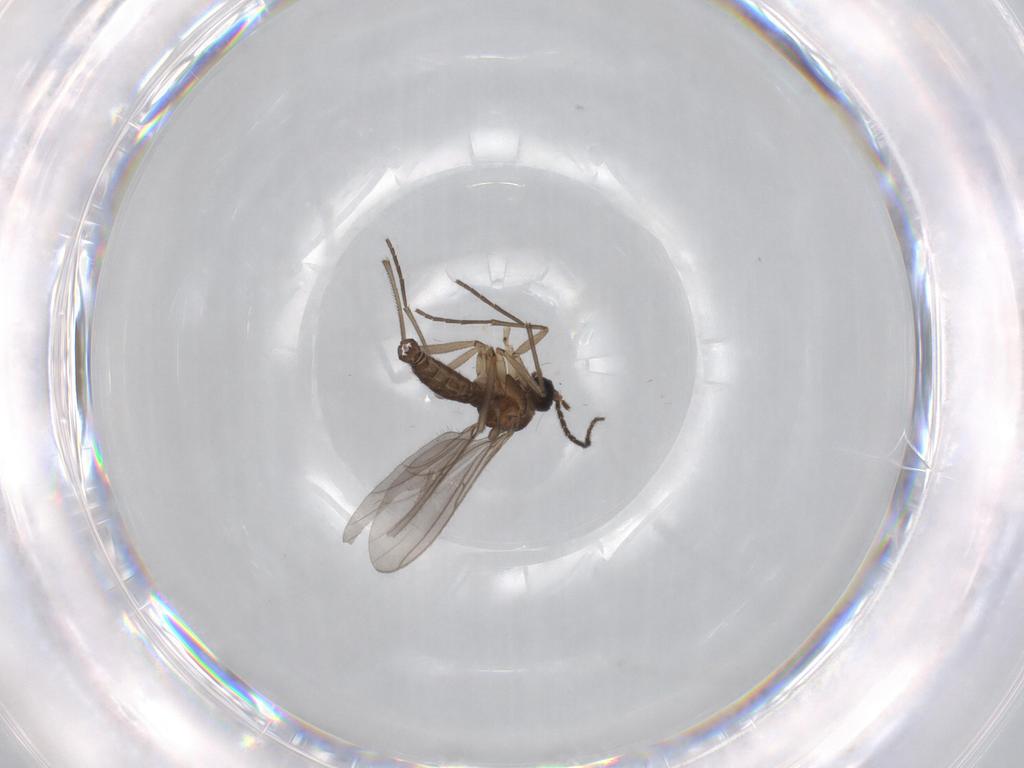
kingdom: Animalia
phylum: Arthropoda
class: Insecta
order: Diptera
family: Sciaridae
